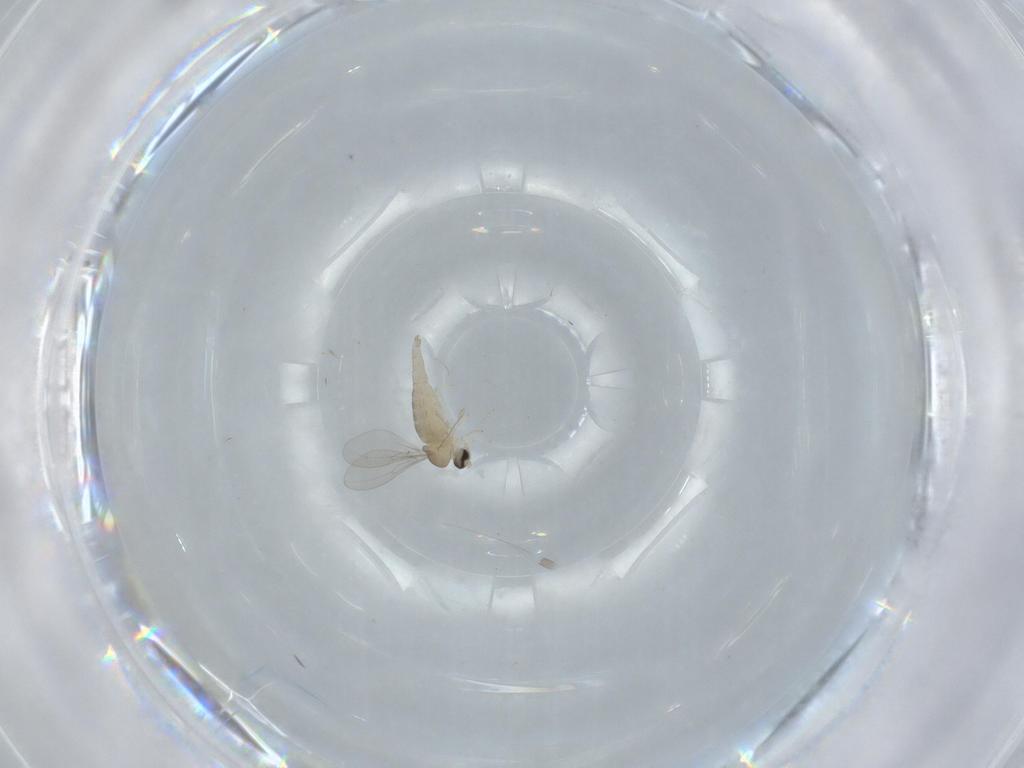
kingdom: Animalia
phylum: Arthropoda
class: Insecta
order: Diptera
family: Cecidomyiidae
